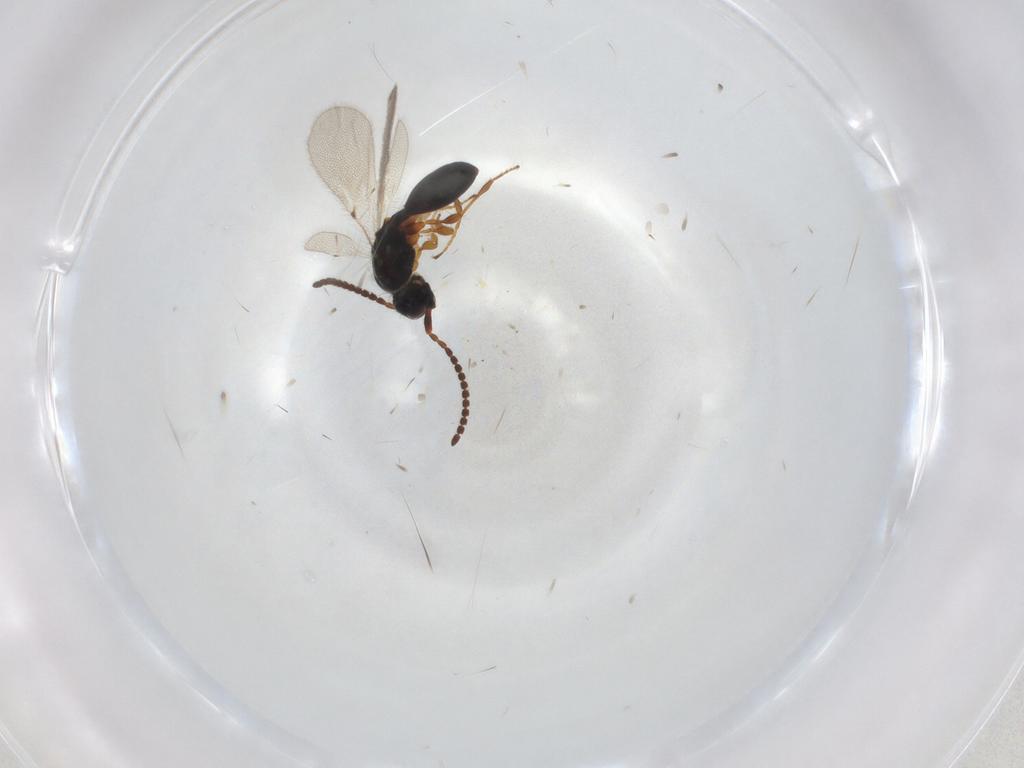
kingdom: Animalia
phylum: Arthropoda
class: Insecta
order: Hymenoptera
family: Diapriidae
